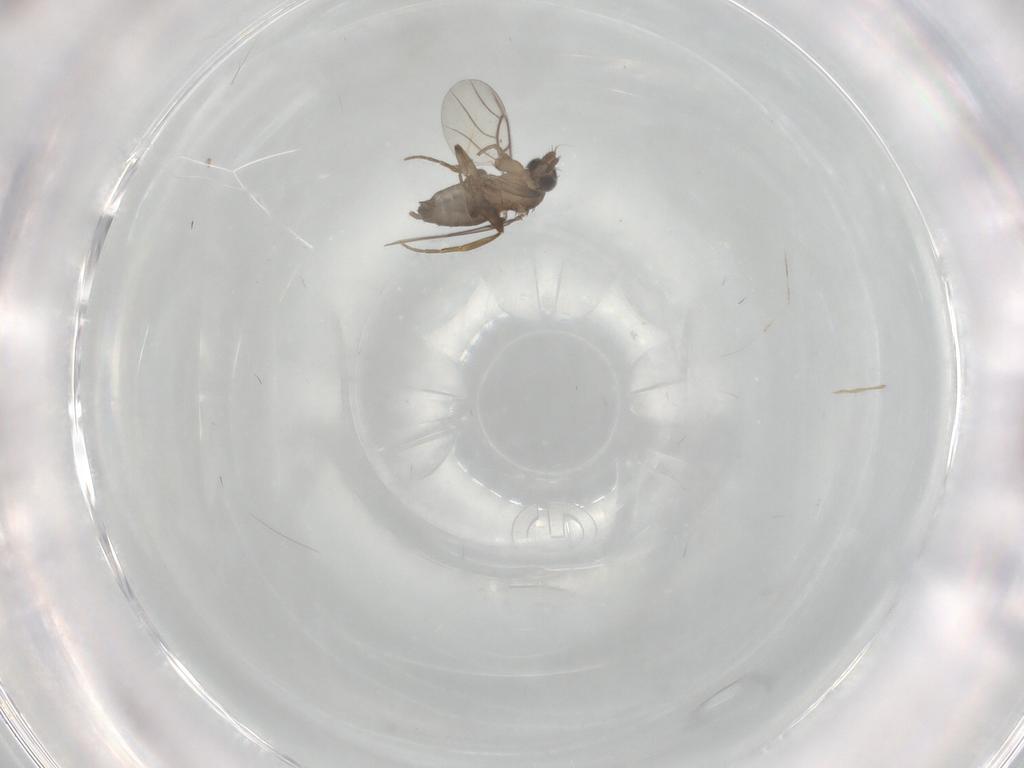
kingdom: Animalia
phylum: Arthropoda
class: Insecta
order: Diptera
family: Phoridae
